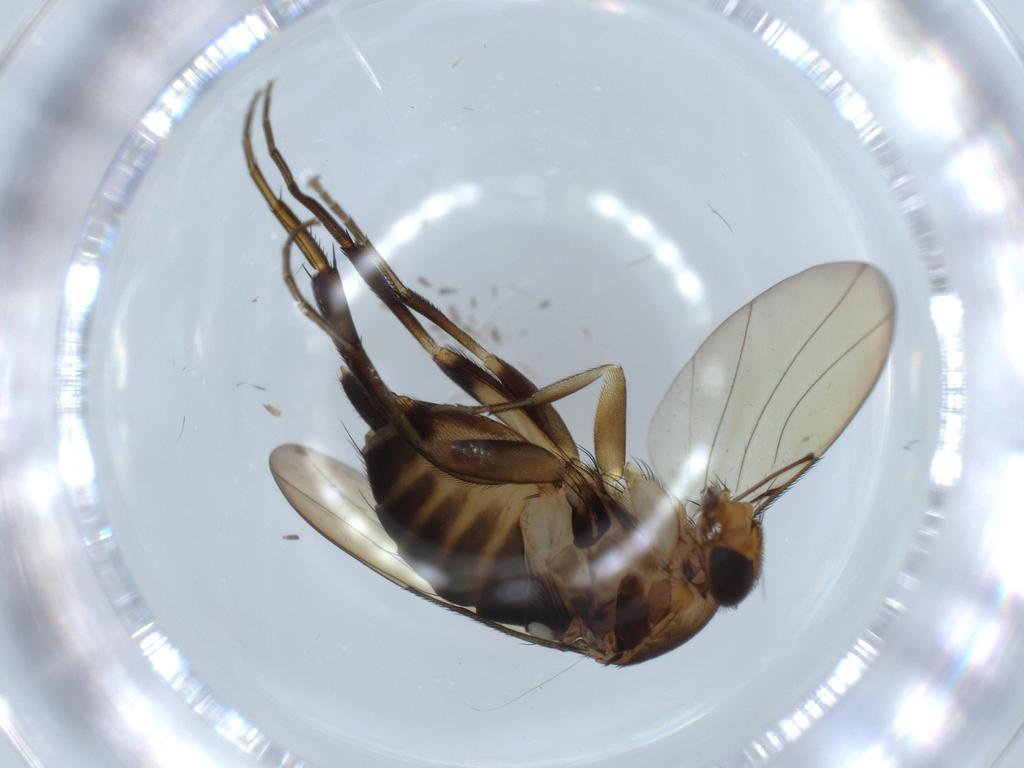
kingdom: Animalia
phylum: Arthropoda
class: Insecta
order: Diptera
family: Phoridae
